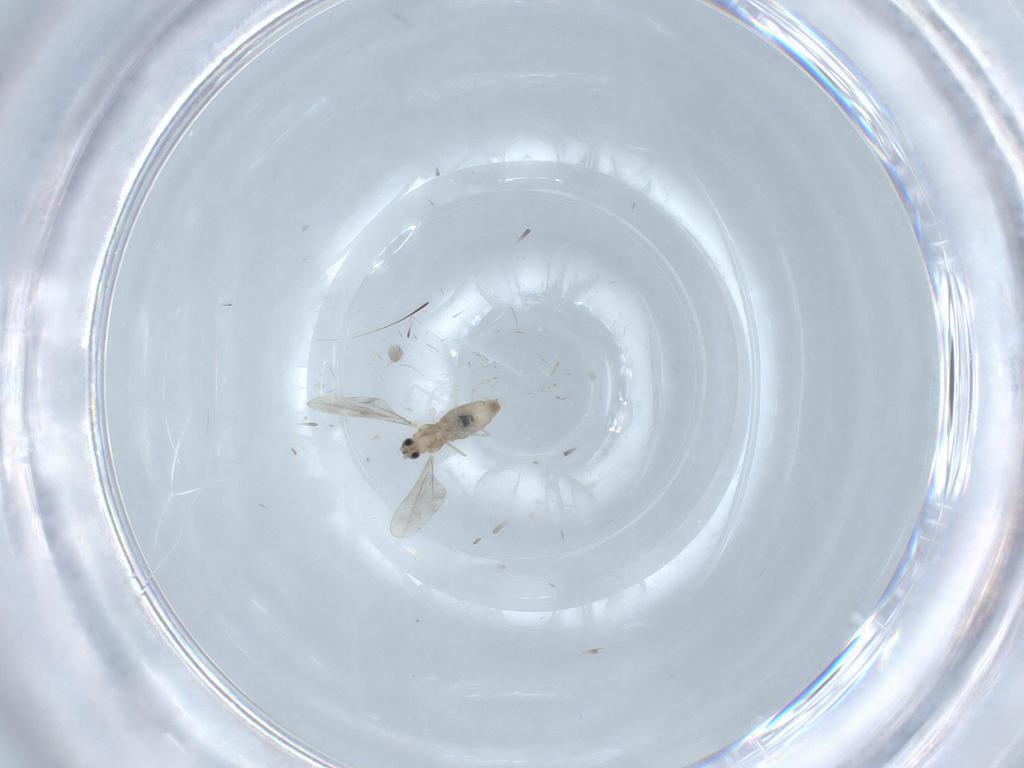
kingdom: Animalia
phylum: Arthropoda
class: Insecta
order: Diptera
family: Cecidomyiidae
